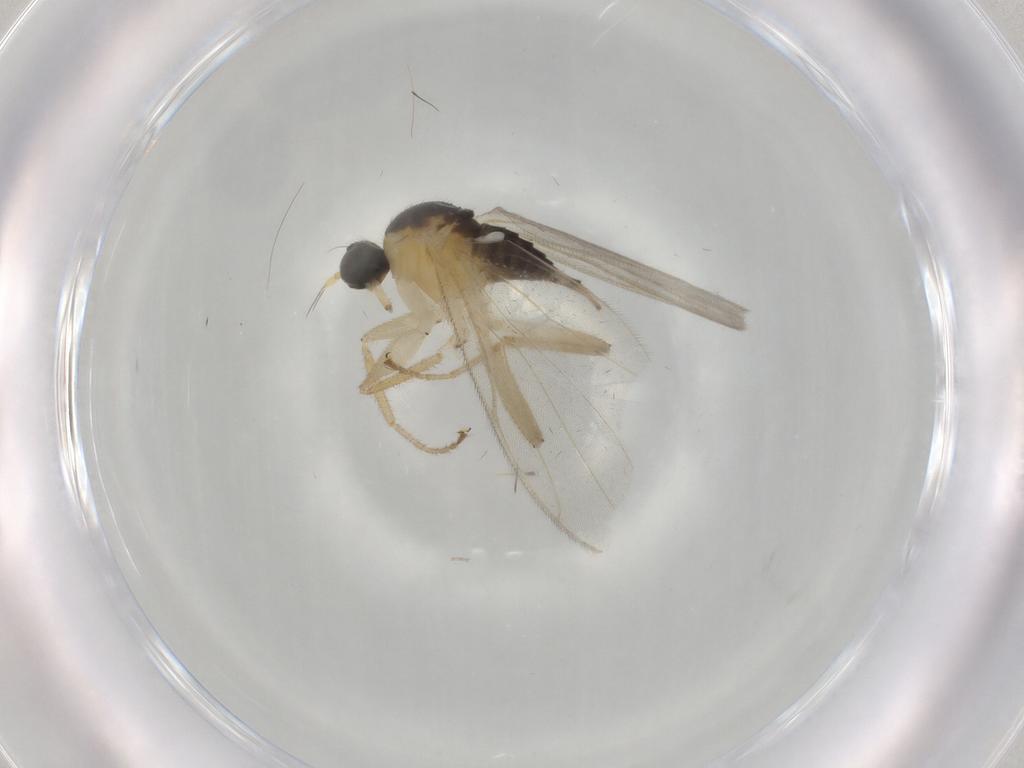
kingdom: Animalia
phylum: Arthropoda
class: Insecta
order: Diptera
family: Hybotidae
